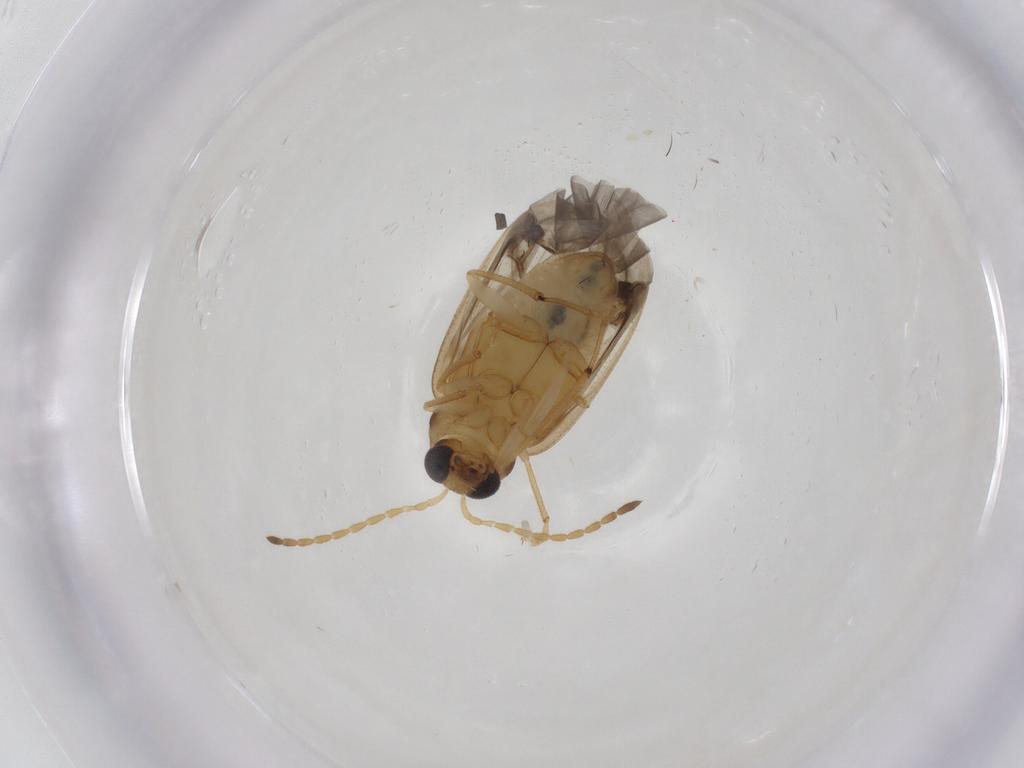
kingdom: Animalia
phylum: Arthropoda
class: Insecta
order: Coleoptera
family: Chrysomelidae
